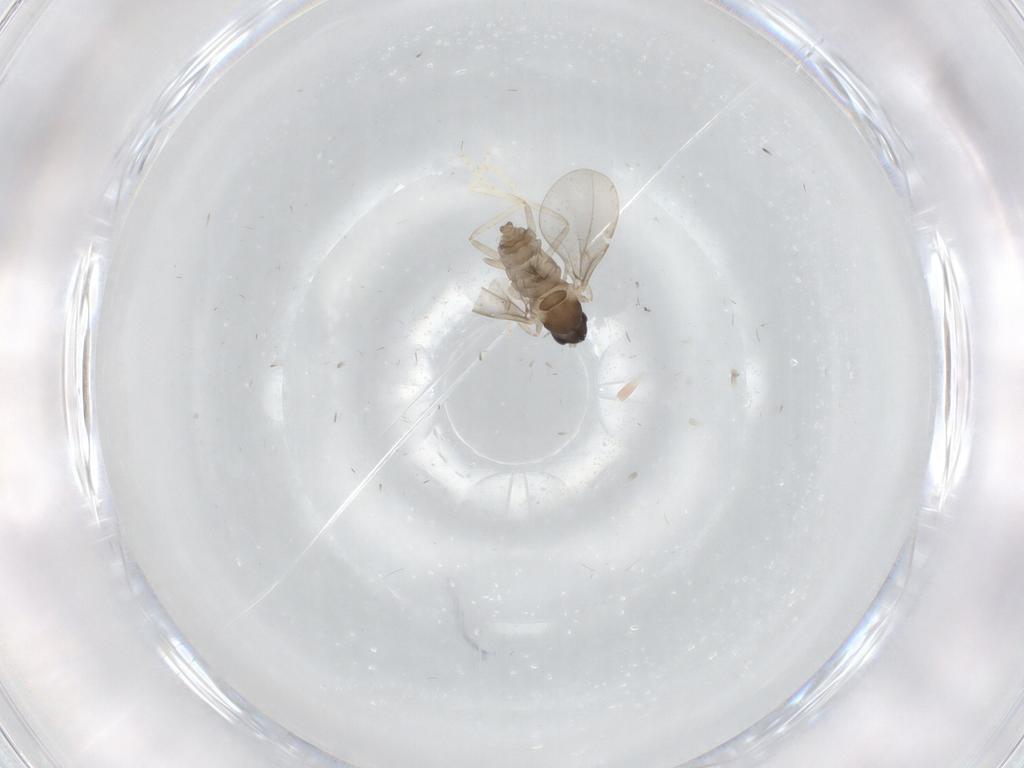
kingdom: Animalia
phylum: Arthropoda
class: Insecta
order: Diptera
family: Cecidomyiidae
